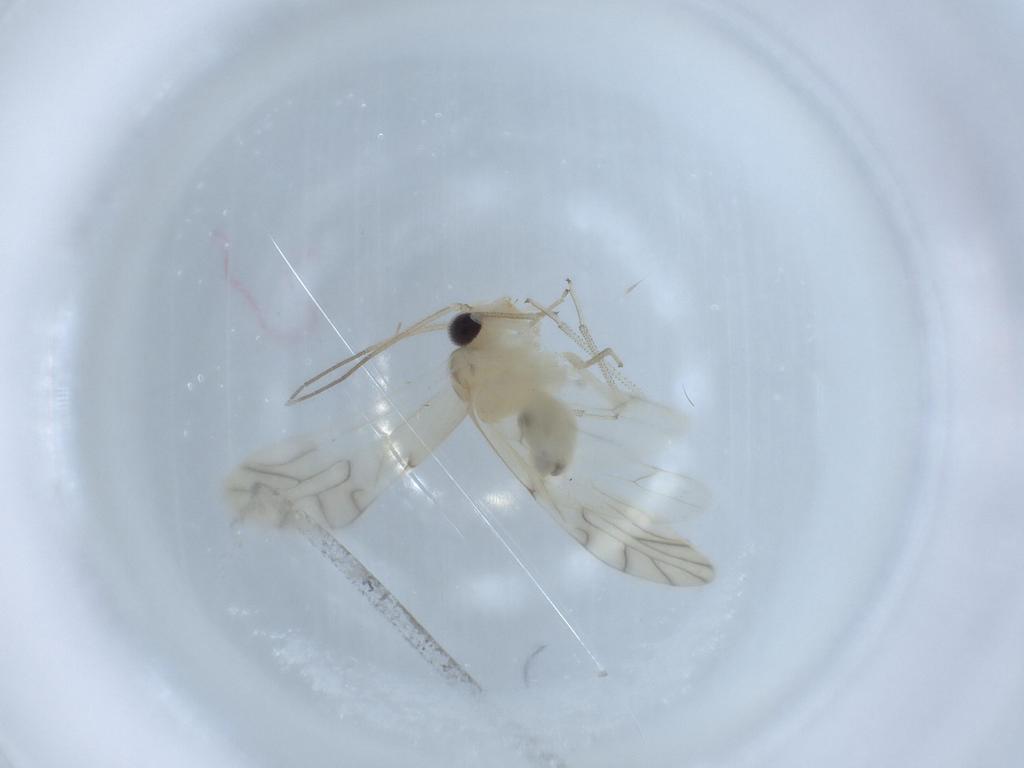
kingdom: Animalia
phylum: Arthropoda
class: Insecta
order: Psocodea
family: Caeciliusidae
